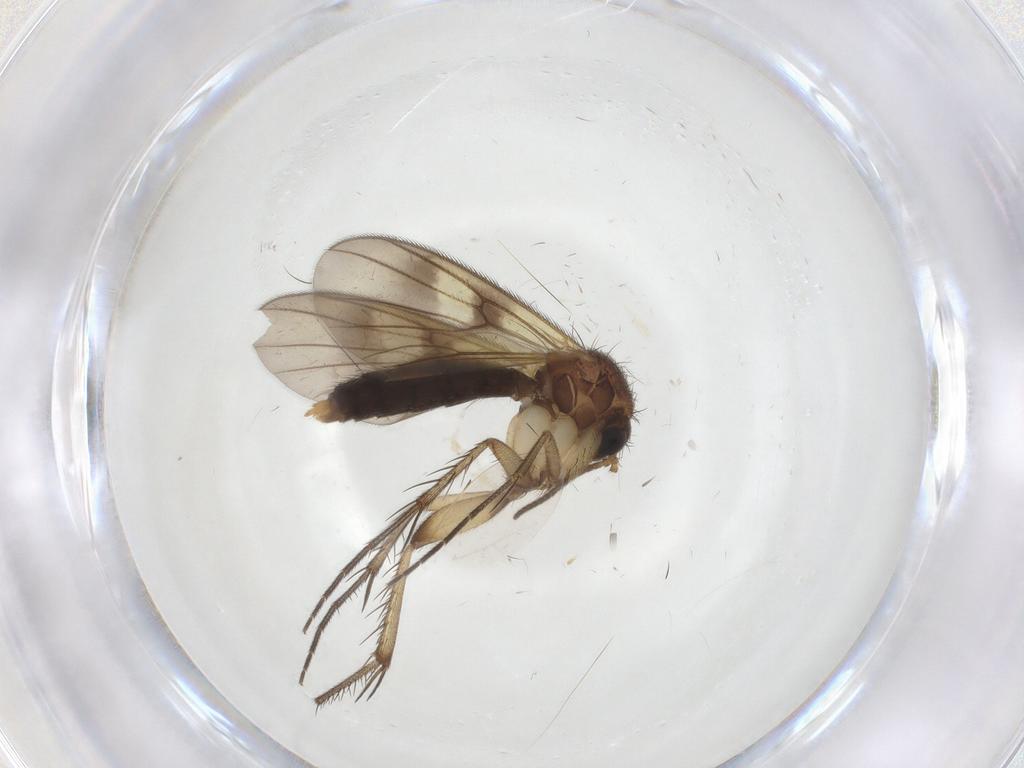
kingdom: Animalia
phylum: Arthropoda
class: Insecta
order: Diptera
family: Mycetophilidae
